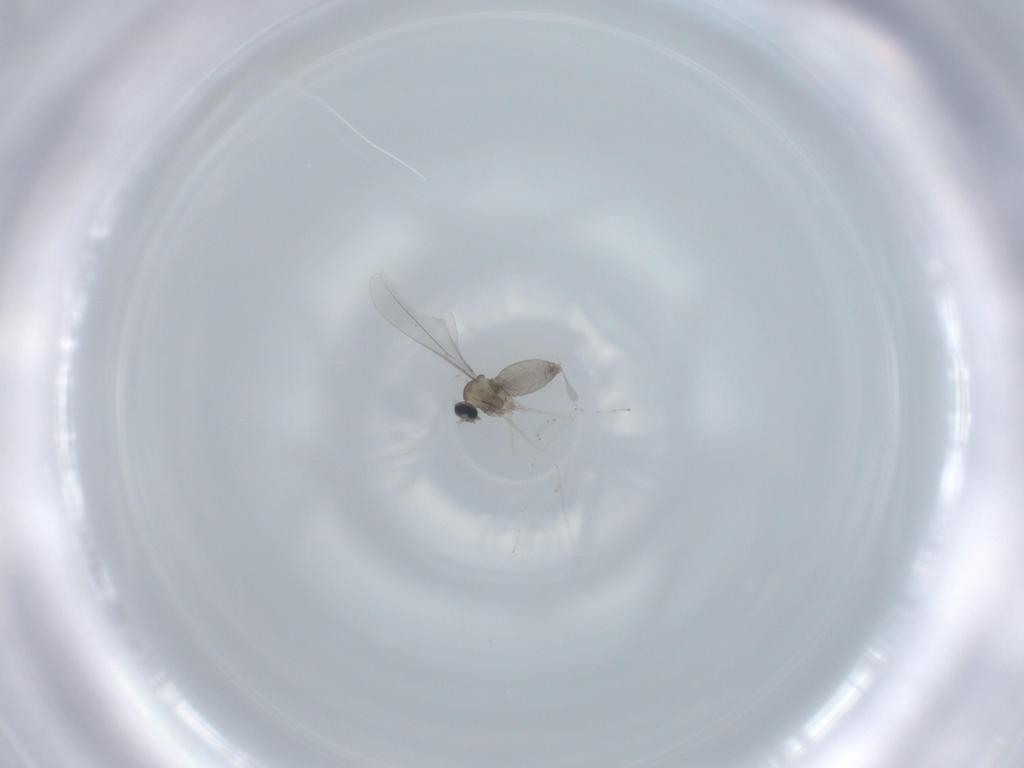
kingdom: Animalia
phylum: Arthropoda
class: Insecta
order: Diptera
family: Cecidomyiidae
